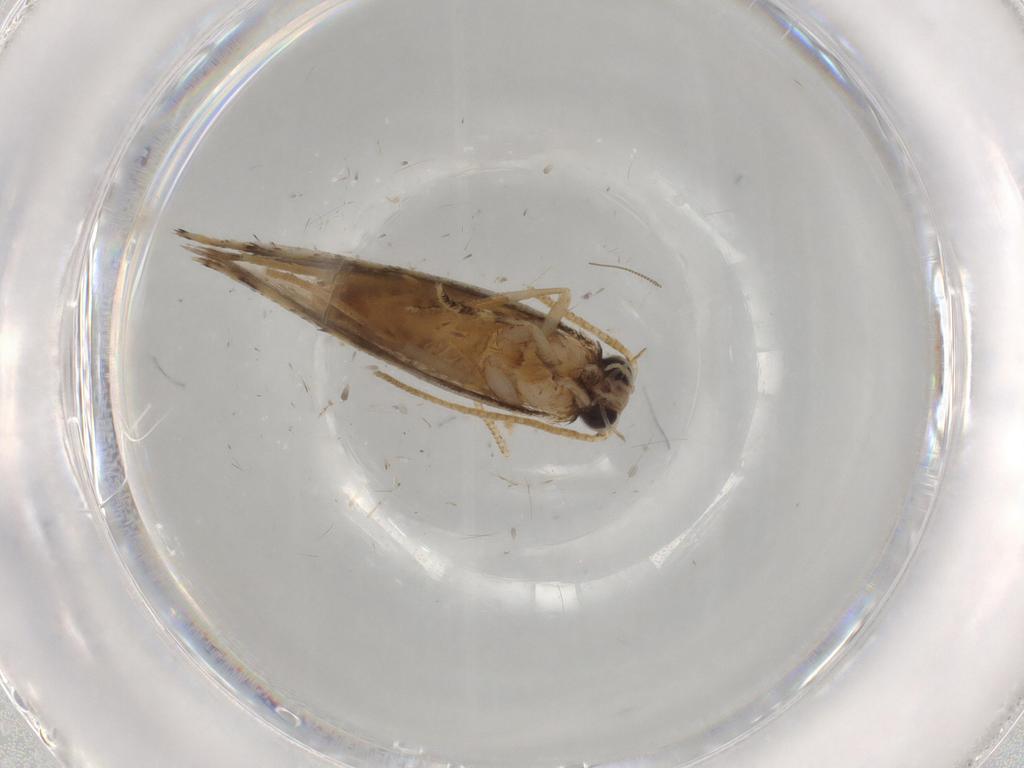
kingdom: Animalia
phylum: Arthropoda
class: Insecta
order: Lepidoptera
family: Tineidae
